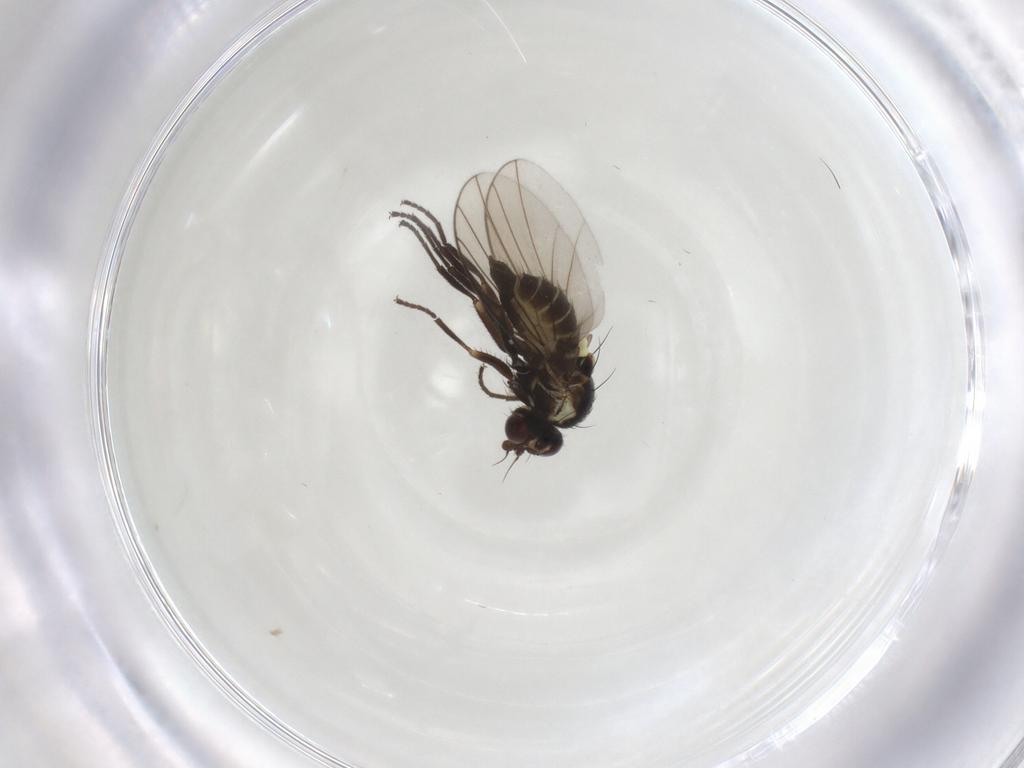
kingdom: Animalia
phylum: Arthropoda
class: Insecta
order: Diptera
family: Agromyzidae
